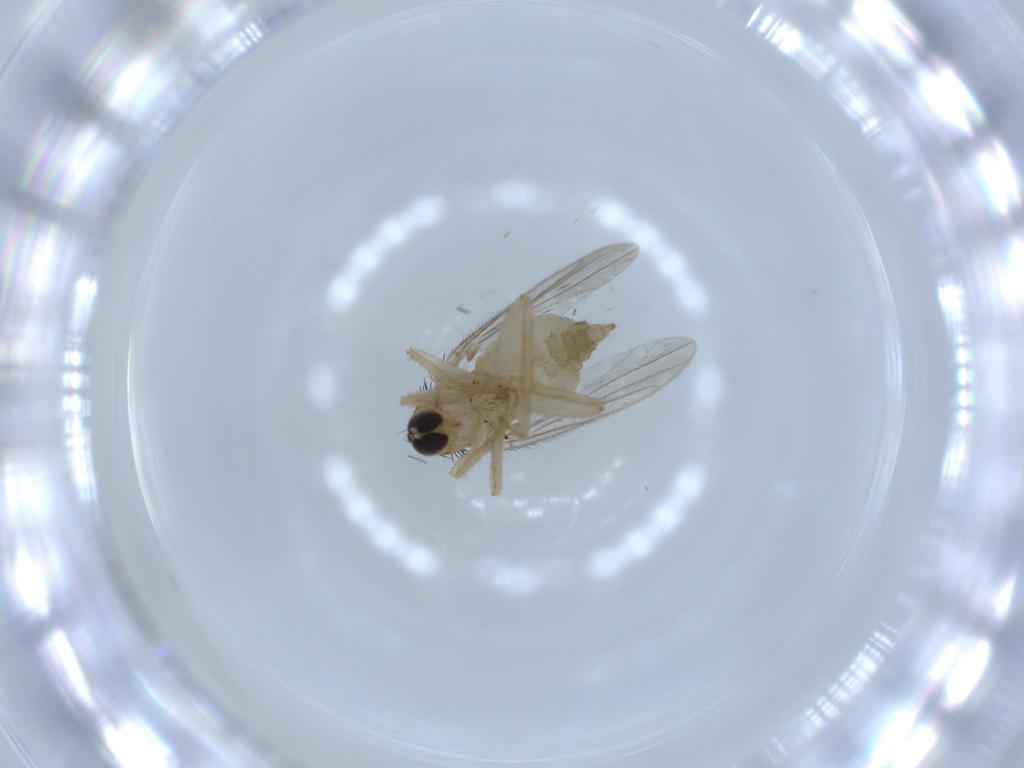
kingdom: Animalia
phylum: Arthropoda
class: Insecta
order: Diptera
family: Hybotidae
